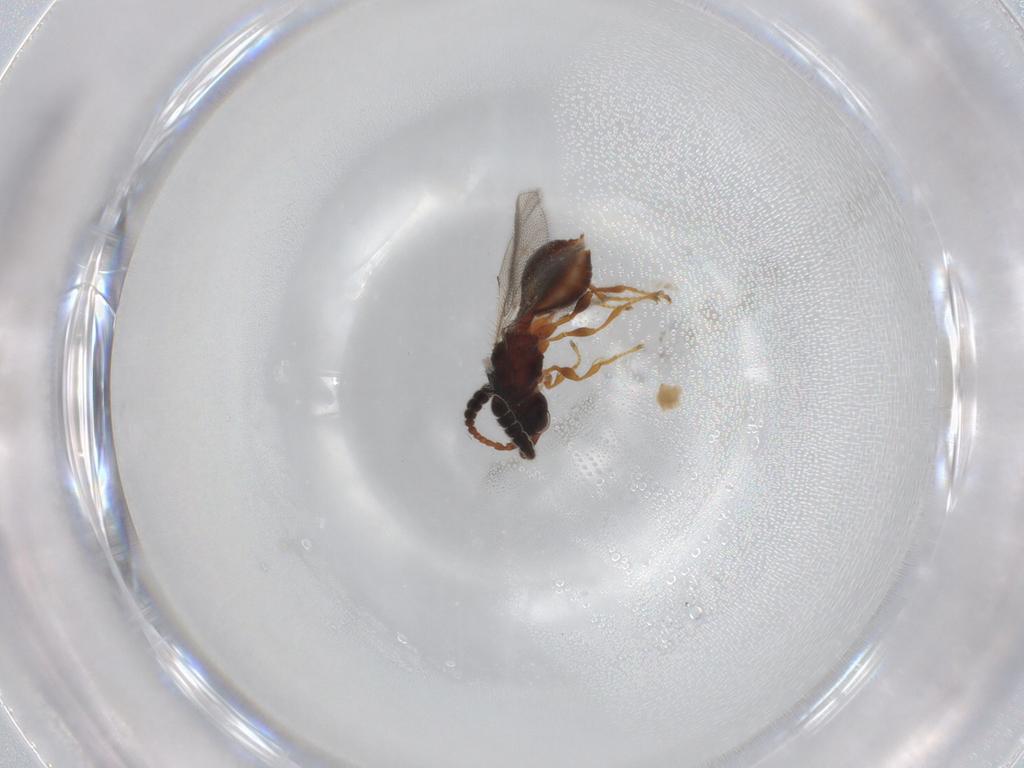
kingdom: Animalia
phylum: Arthropoda
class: Insecta
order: Hymenoptera
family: Diapriidae
